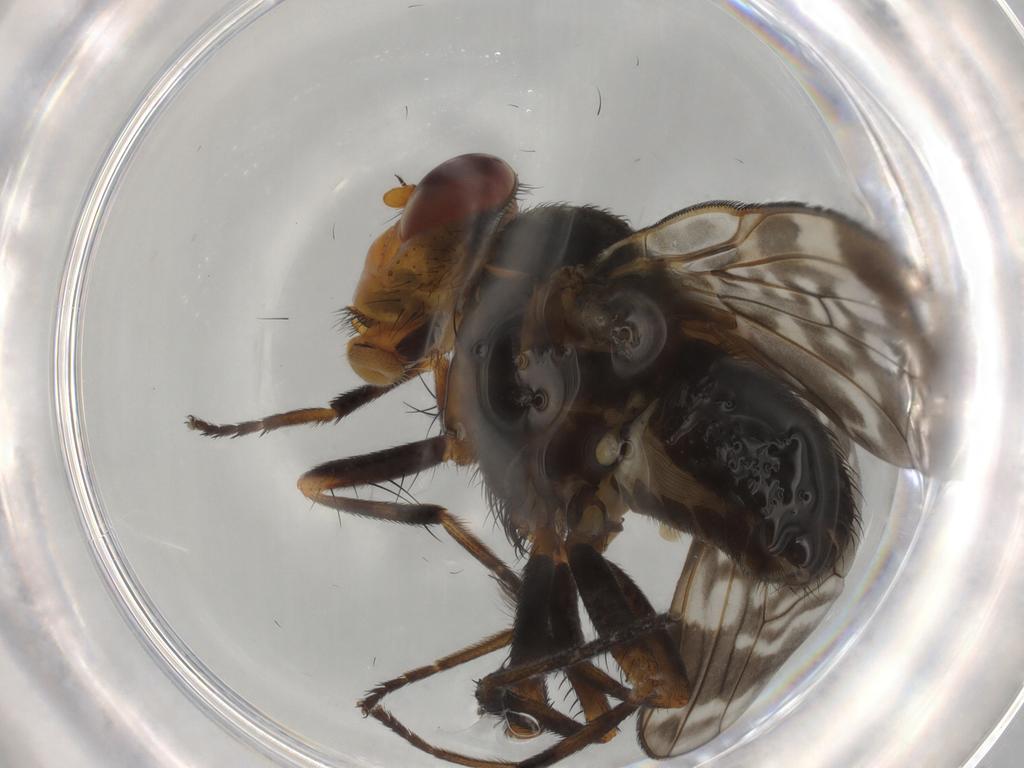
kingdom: Animalia
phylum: Arthropoda
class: Insecta
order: Diptera
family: Ceratopogonidae
